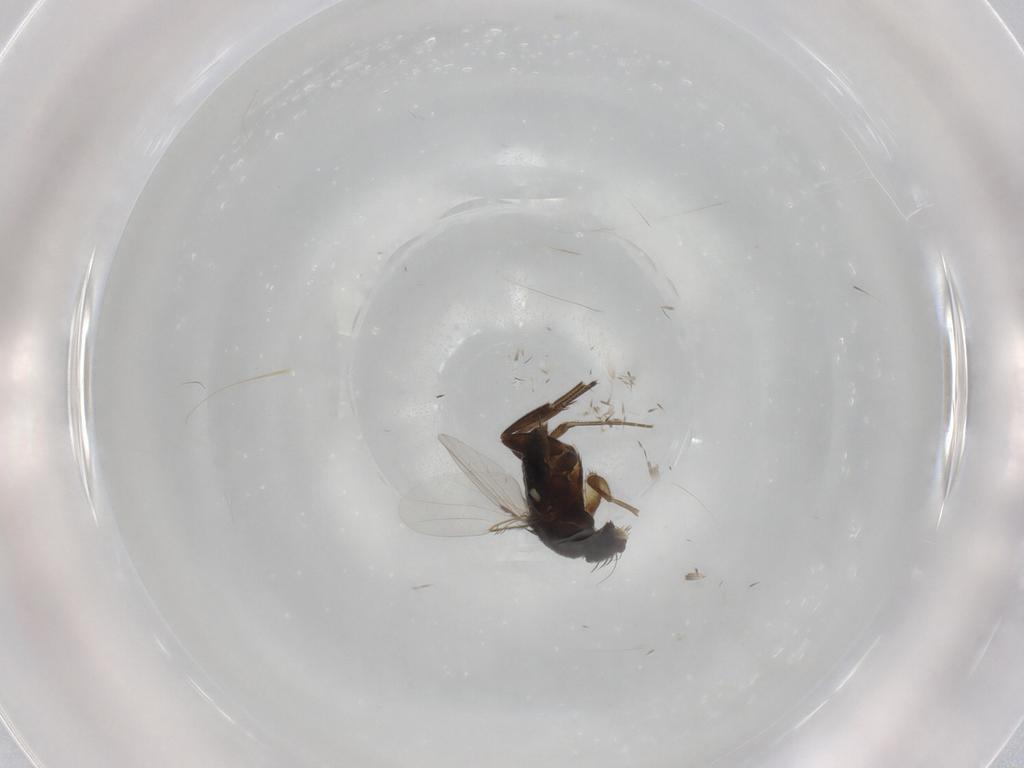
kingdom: Animalia
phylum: Arthropoda
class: Insecta
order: Diptera
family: Phoridae
